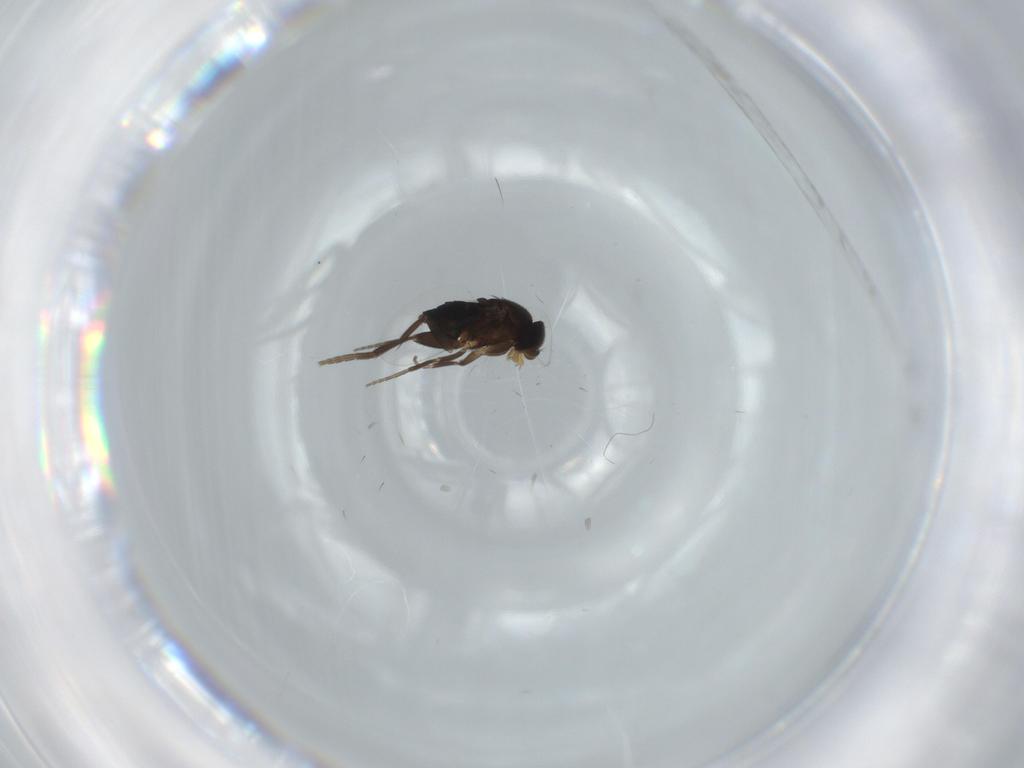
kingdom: Animalia
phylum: Arthropoda
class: Insecta
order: Diptera
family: Phoridae
